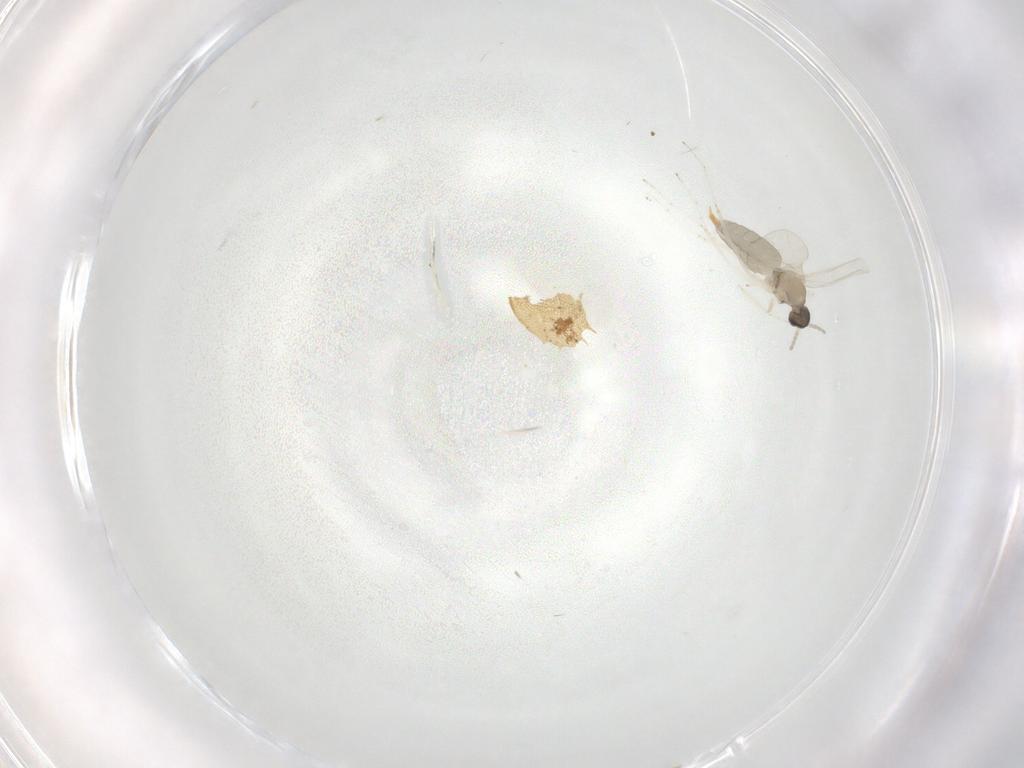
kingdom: Animalia
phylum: Arthropoda
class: Insecta
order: Diptera
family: Cecidomyiidae
